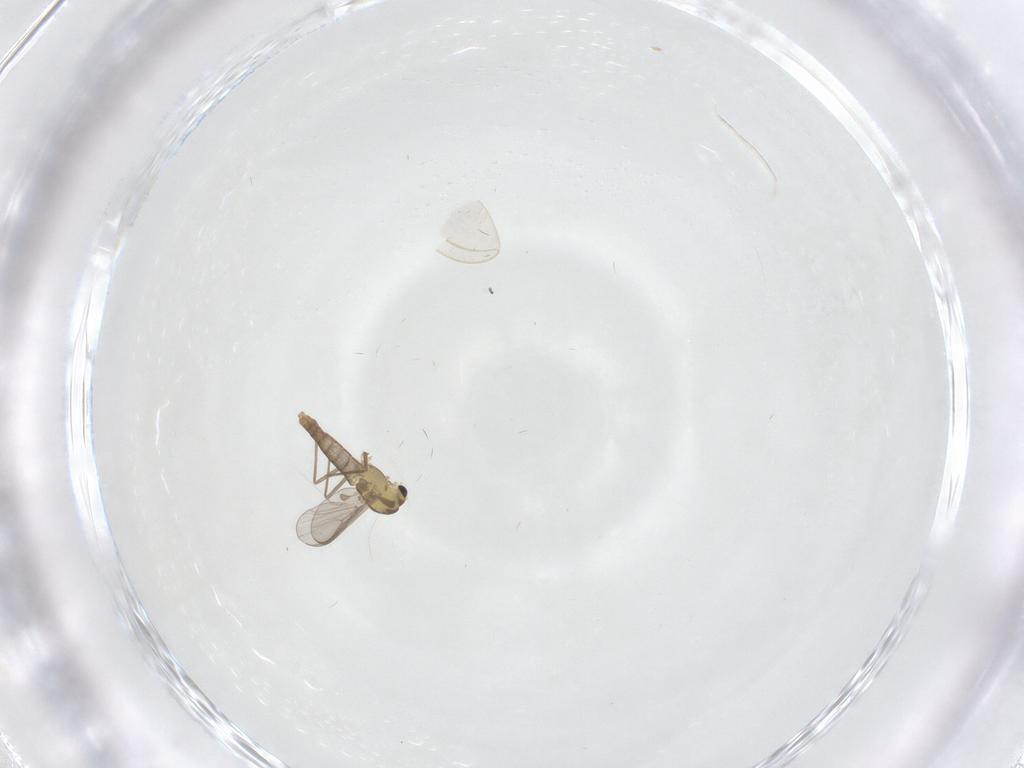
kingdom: Animalia
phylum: Arthropoda
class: Insecta
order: Diptera
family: Chironomidae
